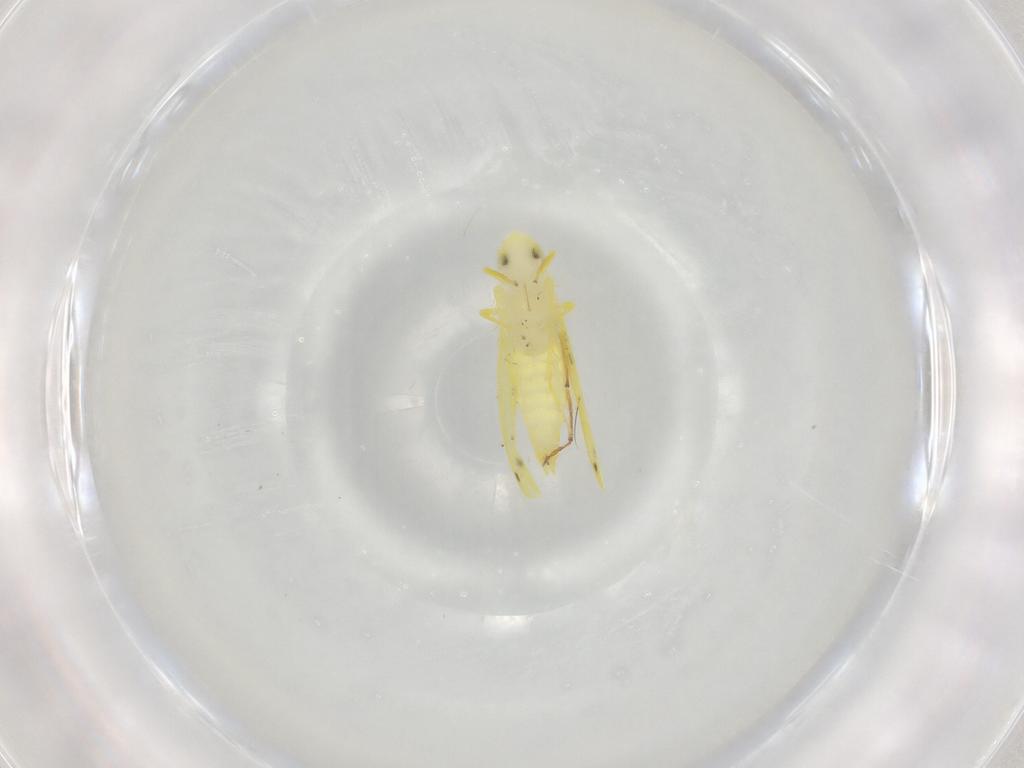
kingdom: Animalia
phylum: Arthropoda
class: Insecta
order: Hemiptera
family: Cicadellidae
